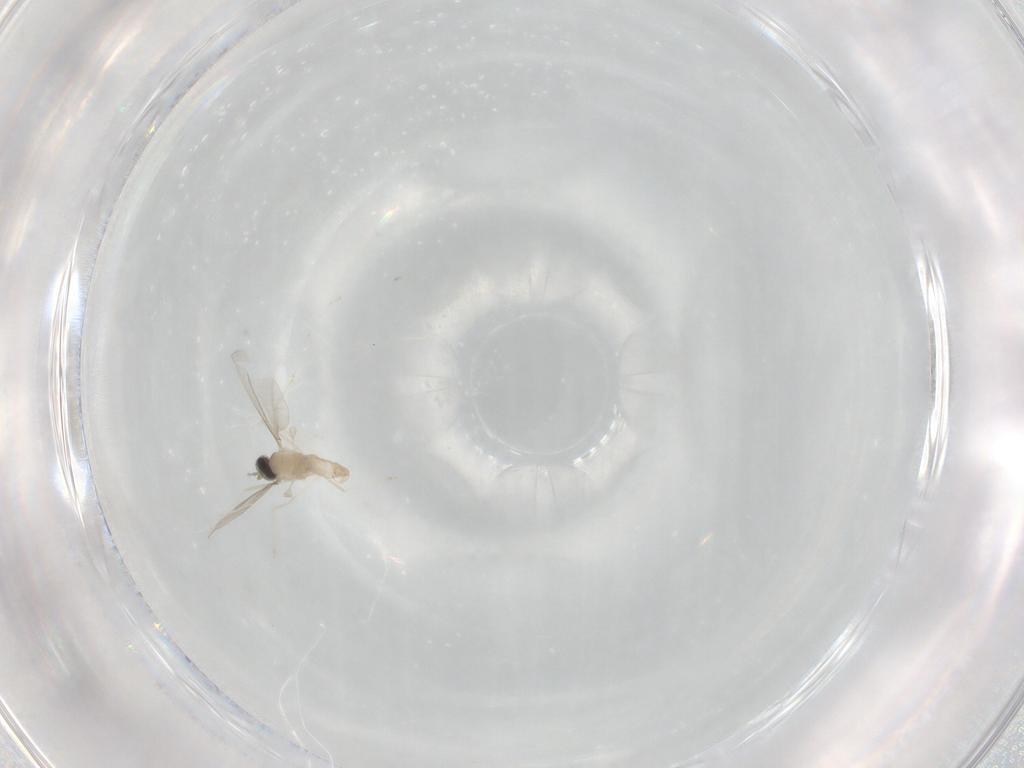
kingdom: Animalia
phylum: Arthropoda
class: Insecta
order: Diptera
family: Cecidomyiidae
